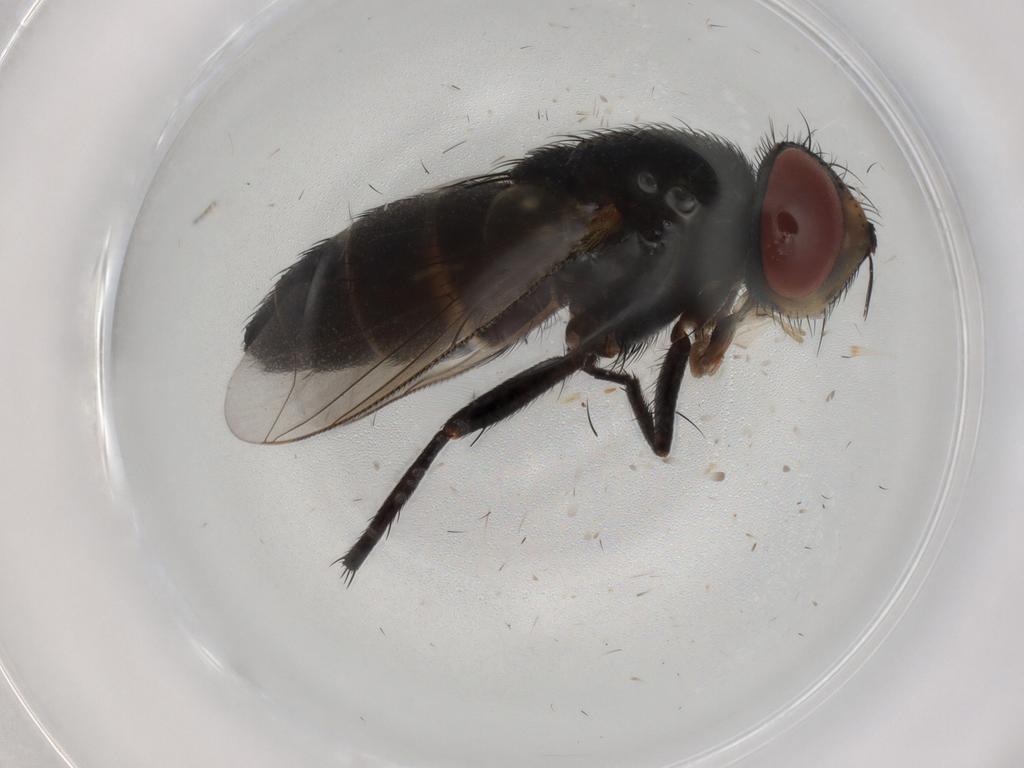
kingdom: Animalia
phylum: Arthropoda
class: Insecta
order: Diptera
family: Anthomyiidae
